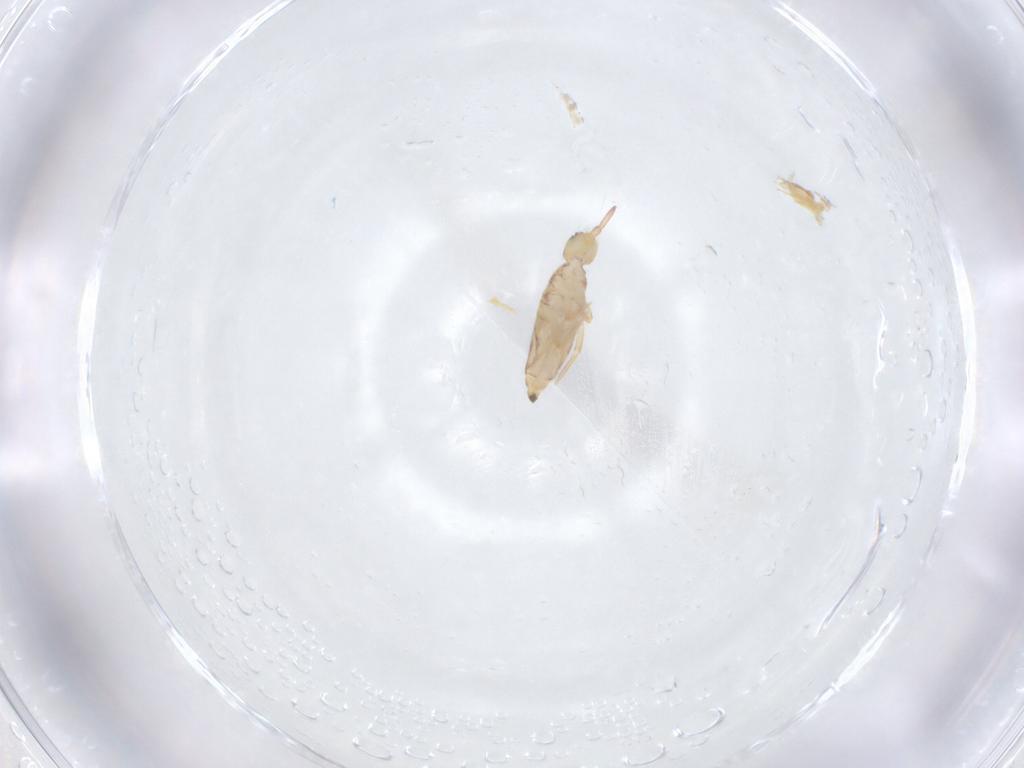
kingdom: Animalia
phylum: Arthropoda
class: Collembola
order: Entomobryomorpha
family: Entomobryidae
